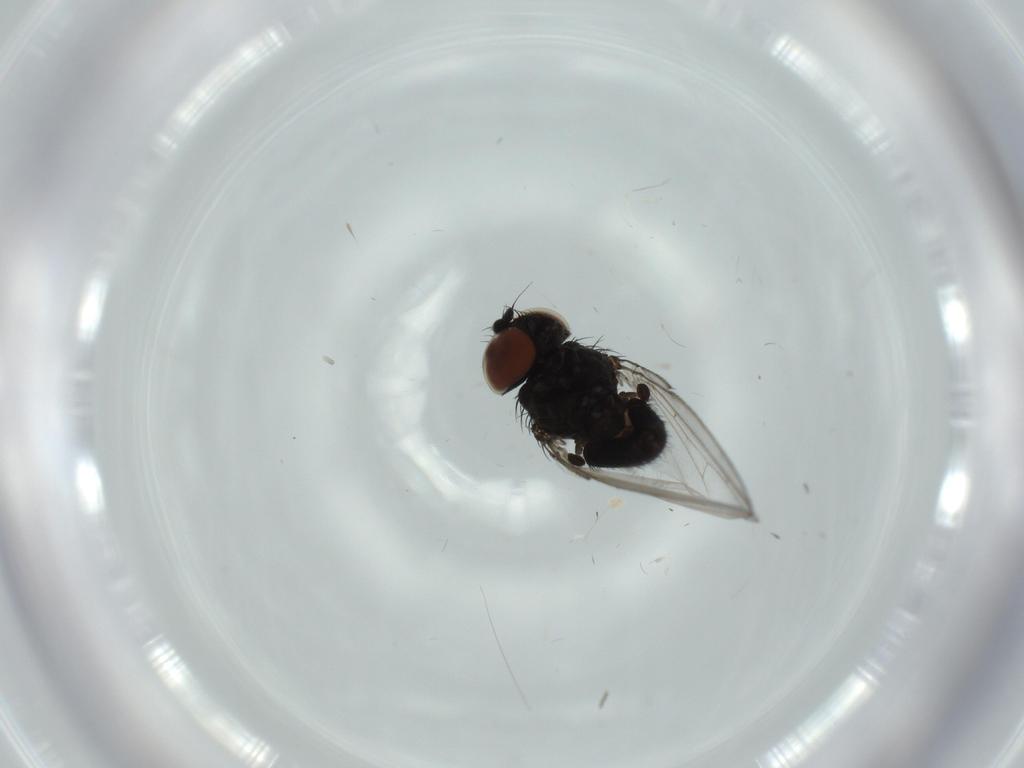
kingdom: Animalia
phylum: Arthropoda
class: Insecta
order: Diptera
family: Milichiidae
